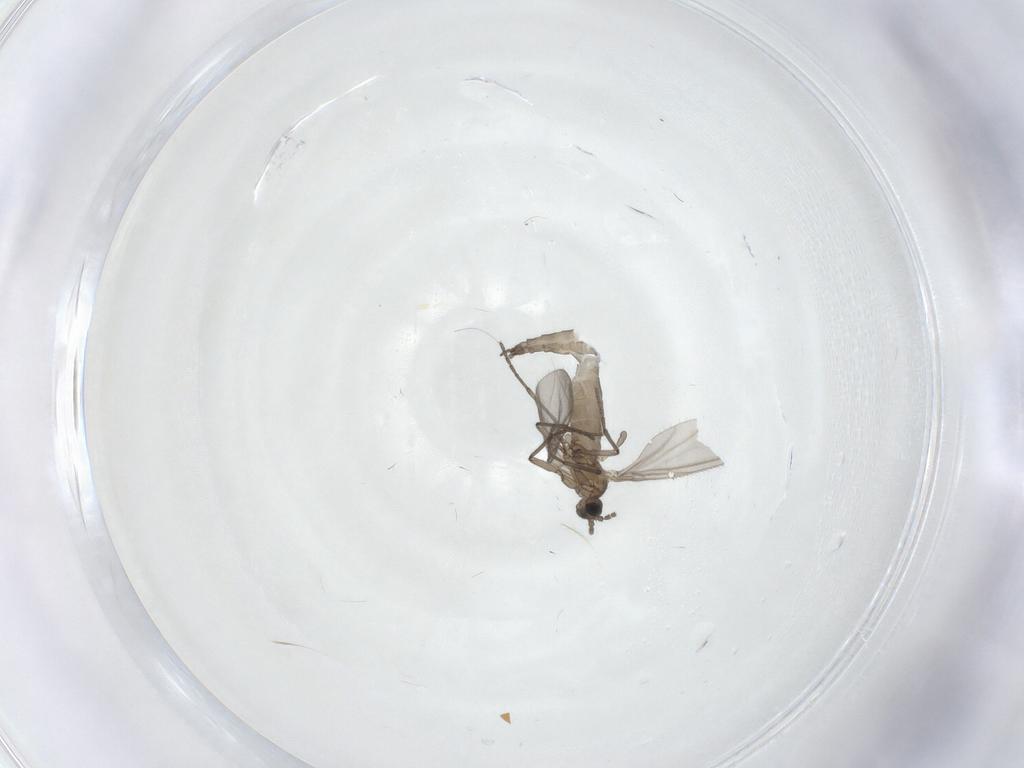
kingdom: Animalia
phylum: Arthropoda
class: Insecta
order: Diptera
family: Sciaridae
